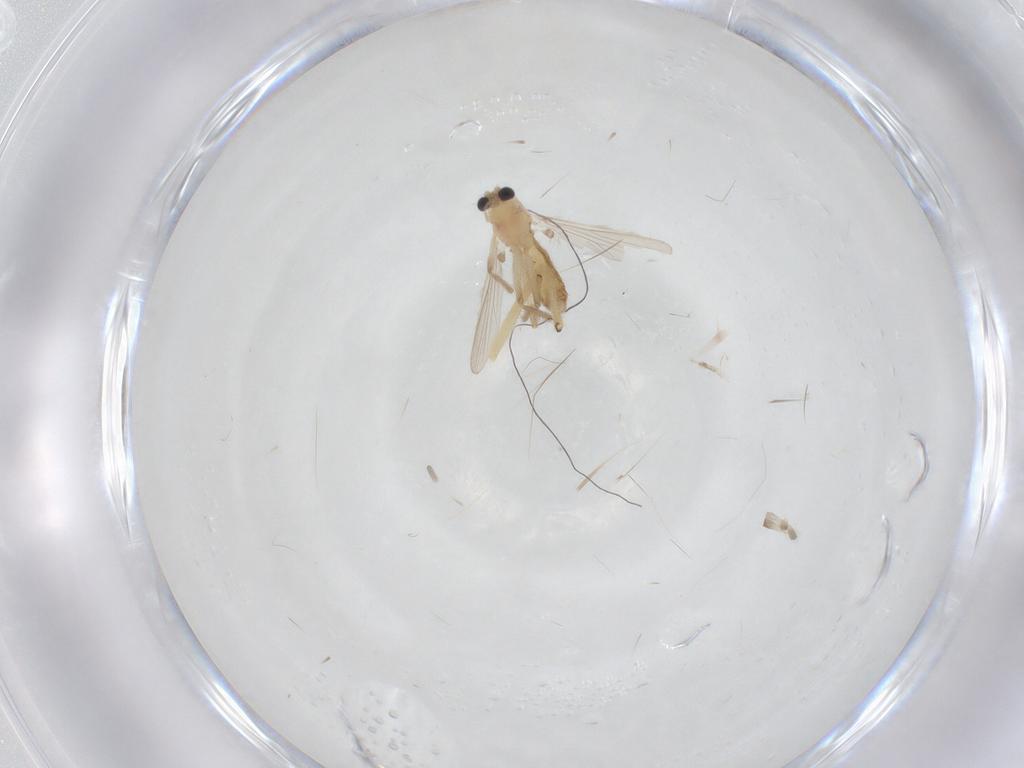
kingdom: Animalia
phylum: Arthropoda
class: Insecta
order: Diptera
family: Chironomidae
